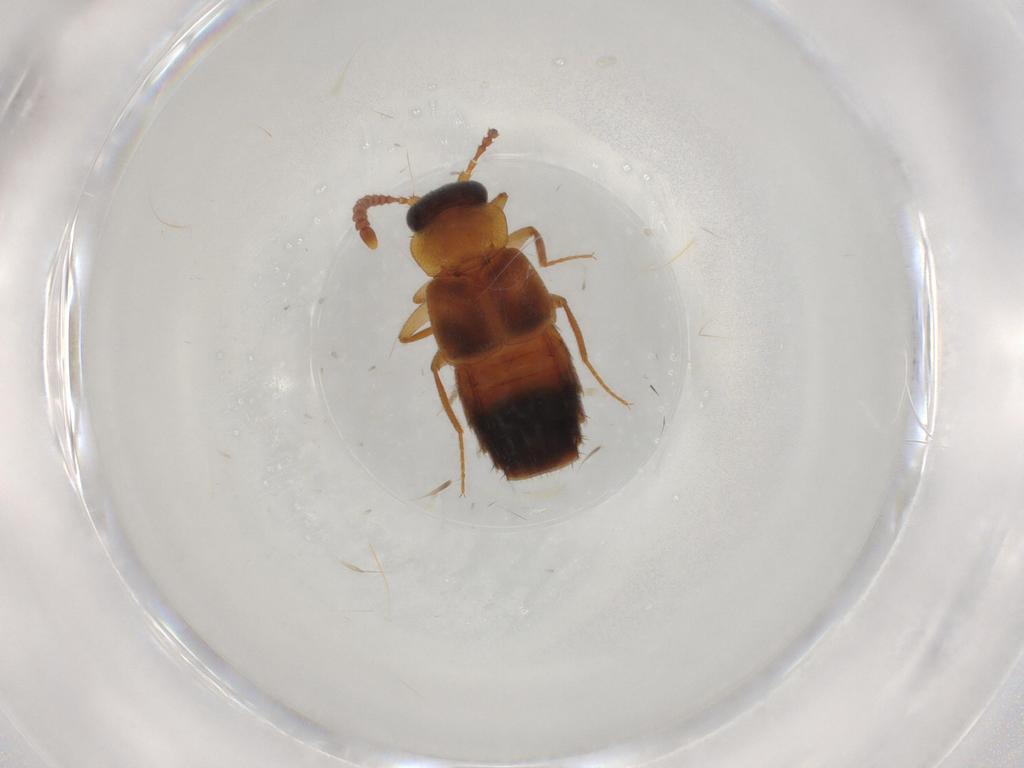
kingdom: Animalia
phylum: Arthropoda
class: Insecta
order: Coleoptera
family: Staphylinidae
